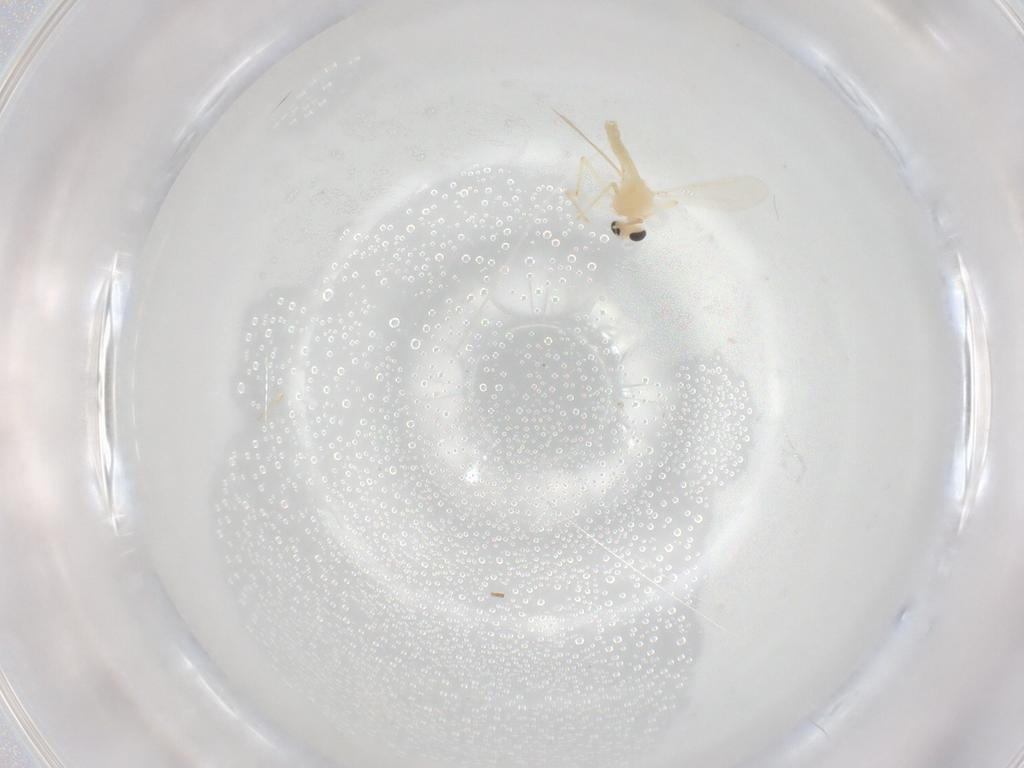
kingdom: Animalia
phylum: Arthropoda
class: Insecta
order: Diptera
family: Chironomidae
